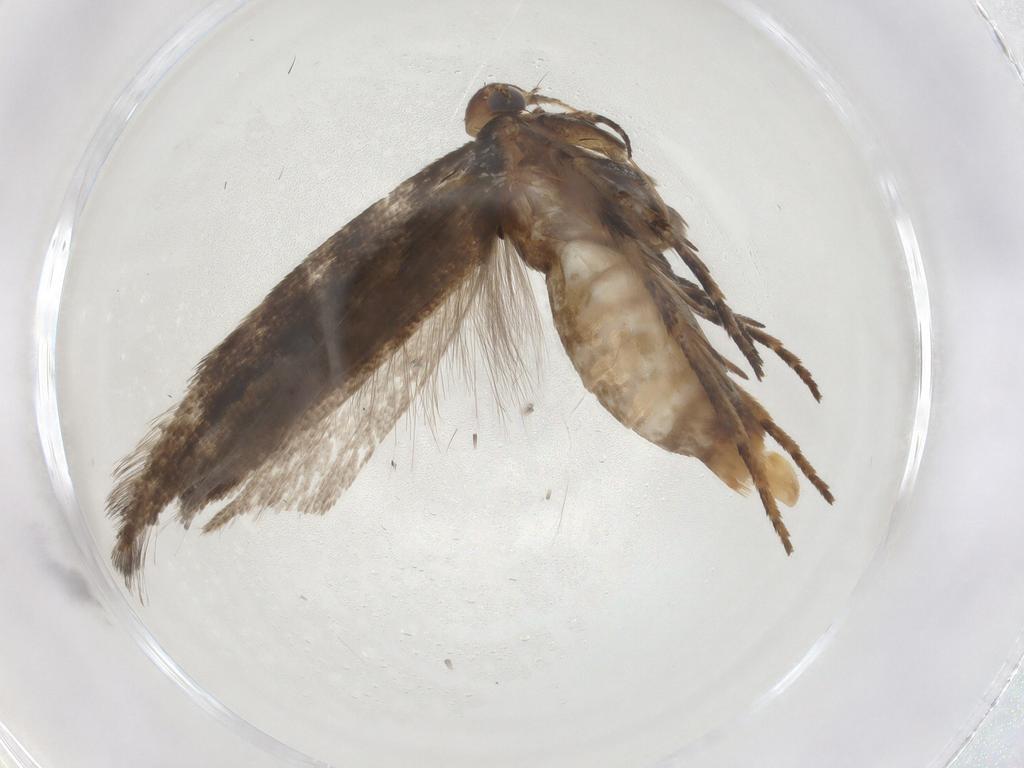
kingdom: Animalia
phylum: Arthropoda
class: Insecta
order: Lepidoptera
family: Gelechiidae
